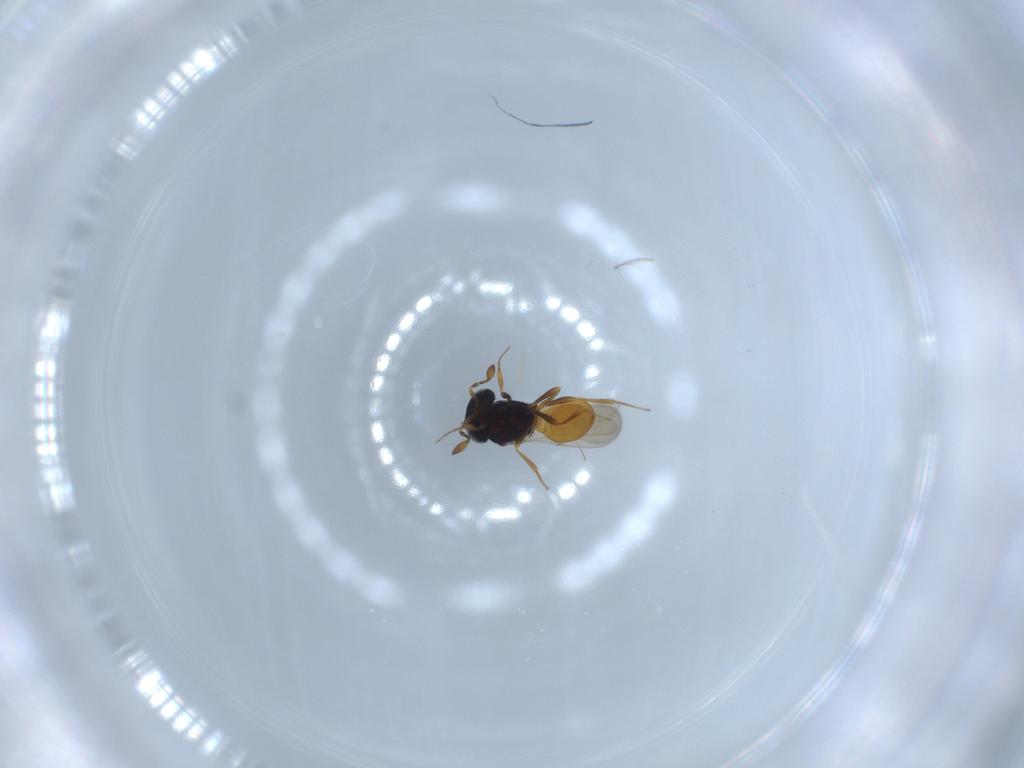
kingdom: Animalia
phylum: Arthropoda
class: Insecta
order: Hymenoptera
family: Scelionidae
